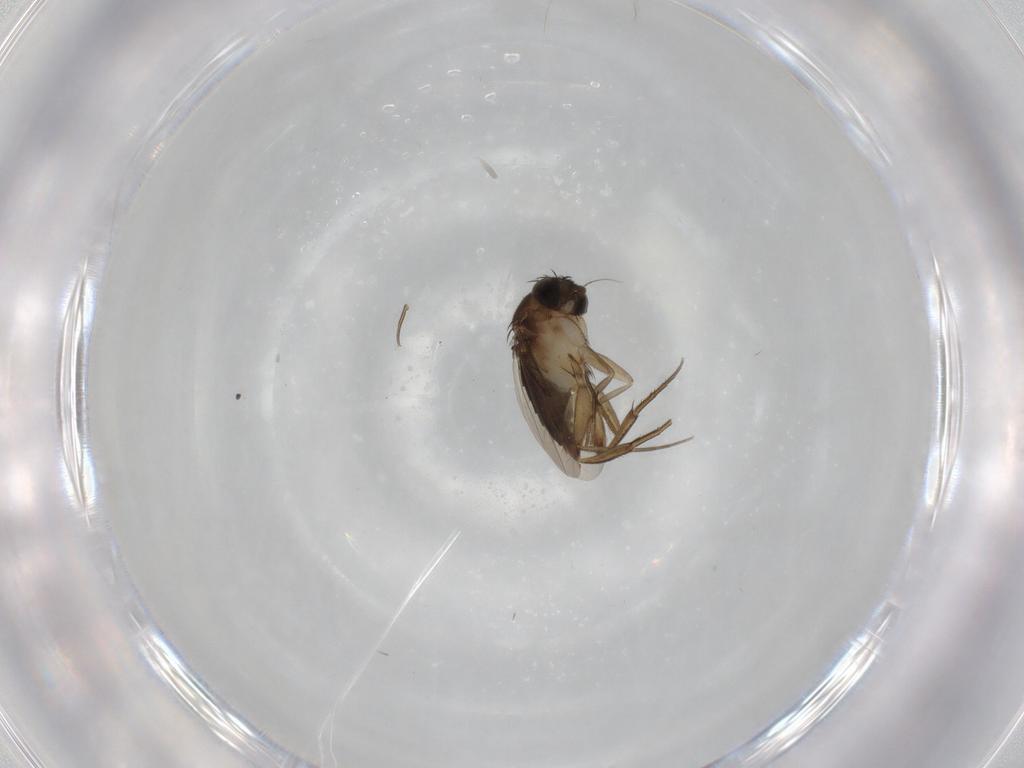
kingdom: Animalia
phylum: Arthropoda
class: Insecta
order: Diptera
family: Phoridae
